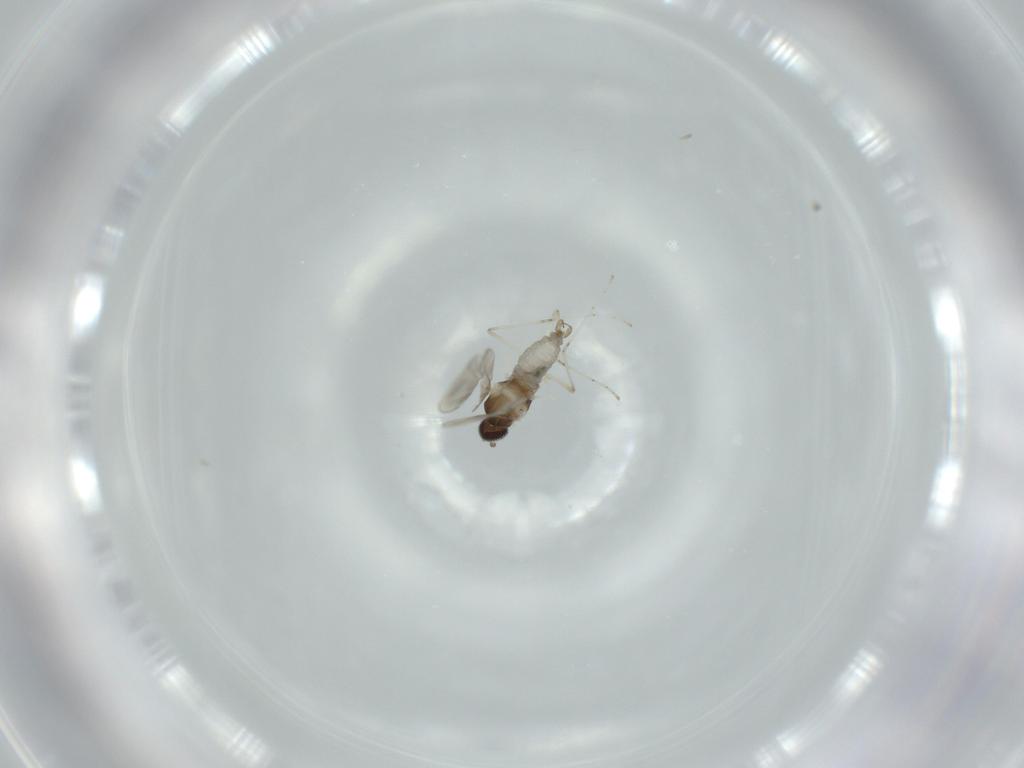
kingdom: Animalia
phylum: Arthropoda
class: Insecta
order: Diptera
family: Cecidomyiidae
